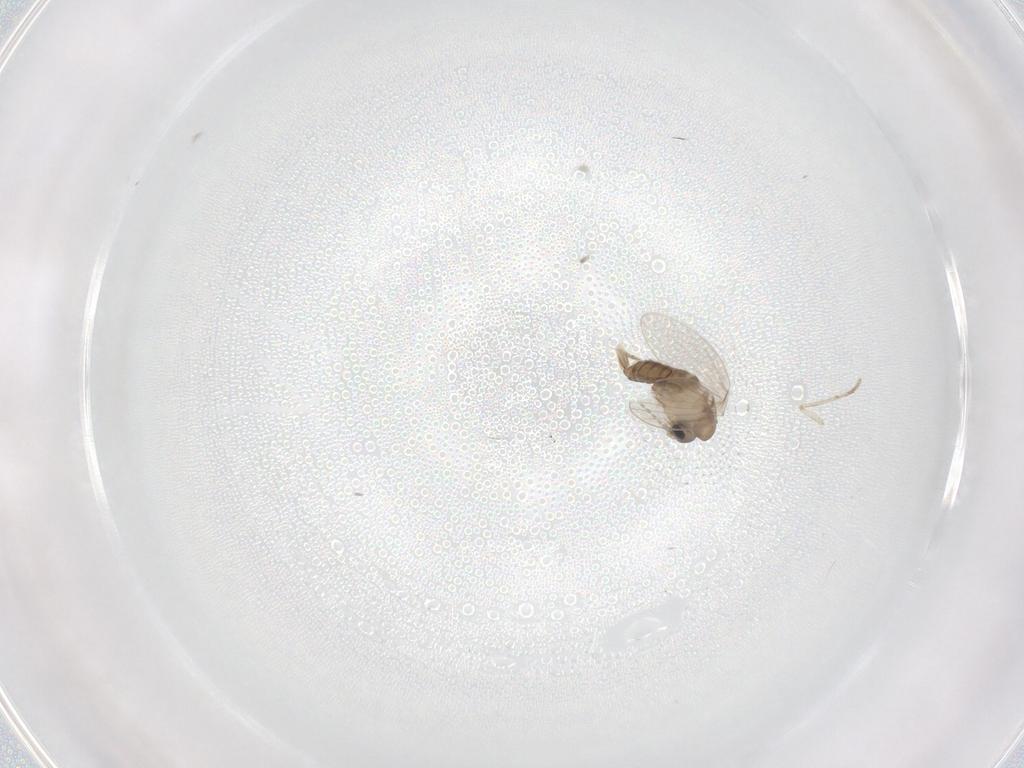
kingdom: Animalia
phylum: Arthropoda
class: Insecta
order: Diptera
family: Psychodidae
